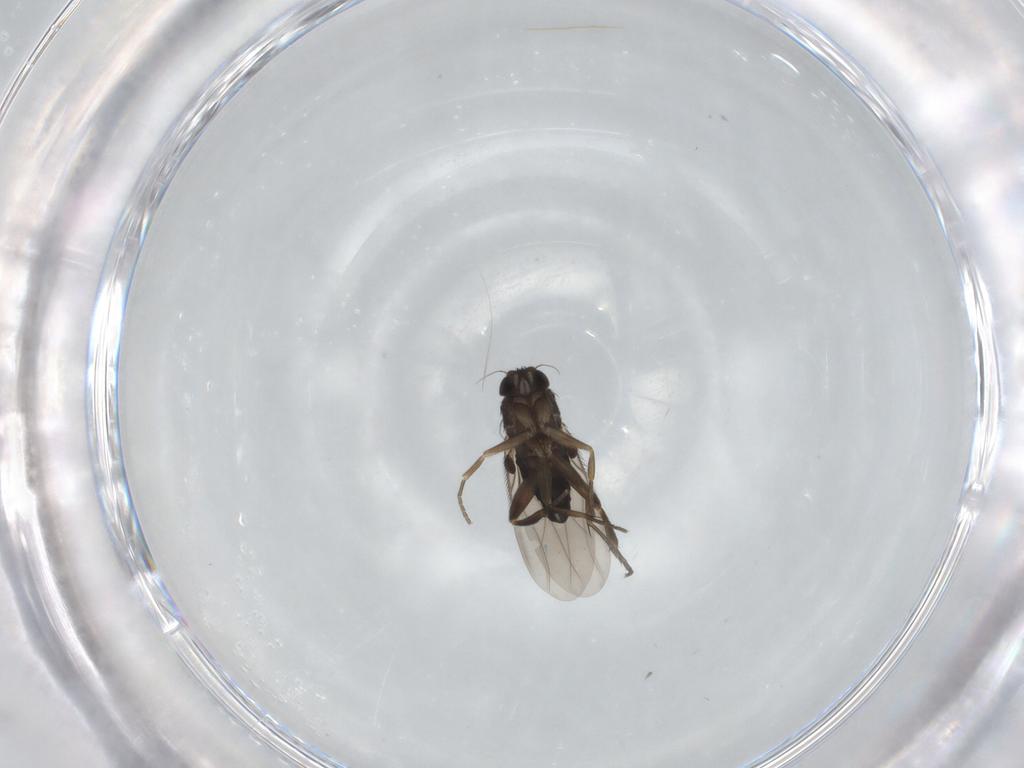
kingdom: Animalia
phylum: Arthropoda
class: Insecta
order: Diptera
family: Phoridae
